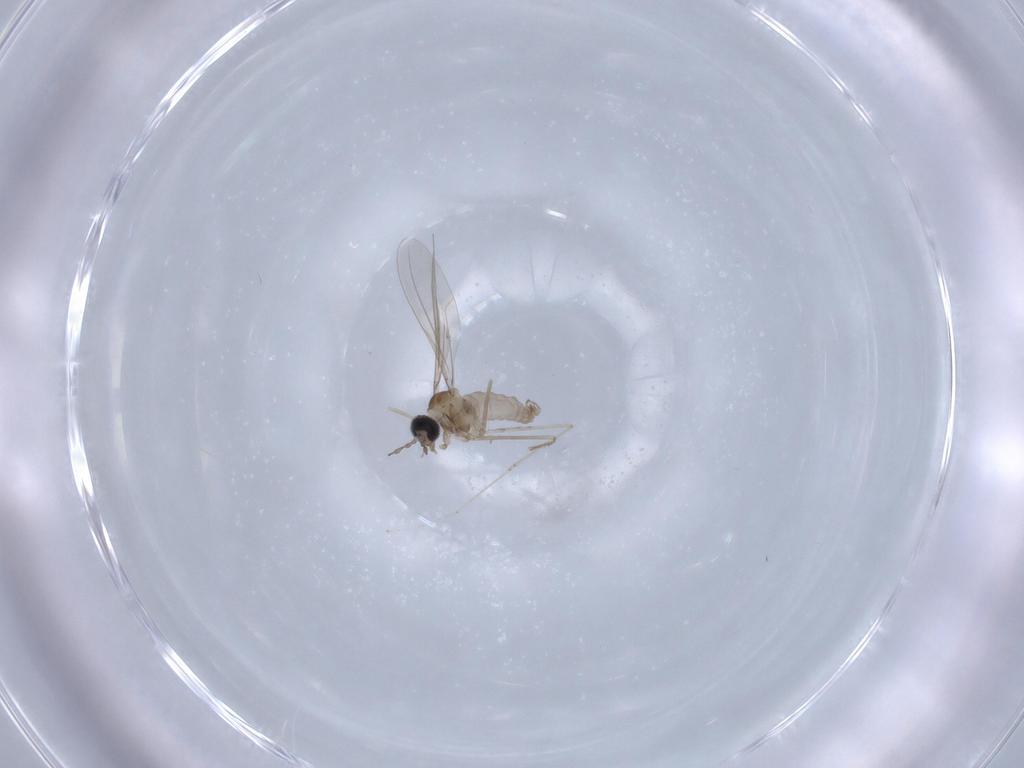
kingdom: Animalia
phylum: Arthropoda
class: Insecta
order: Diptera
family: Cecidomyiidae
